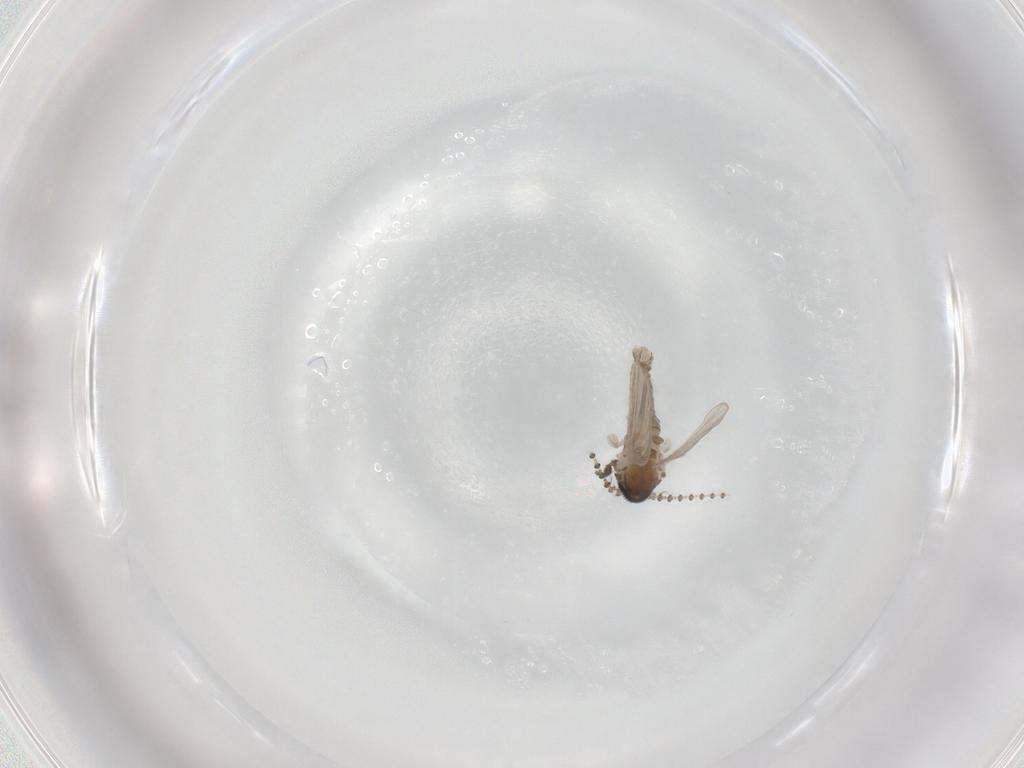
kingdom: Animalia
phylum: Arthropoda
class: Insecta
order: Diptera
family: Psychodidae
